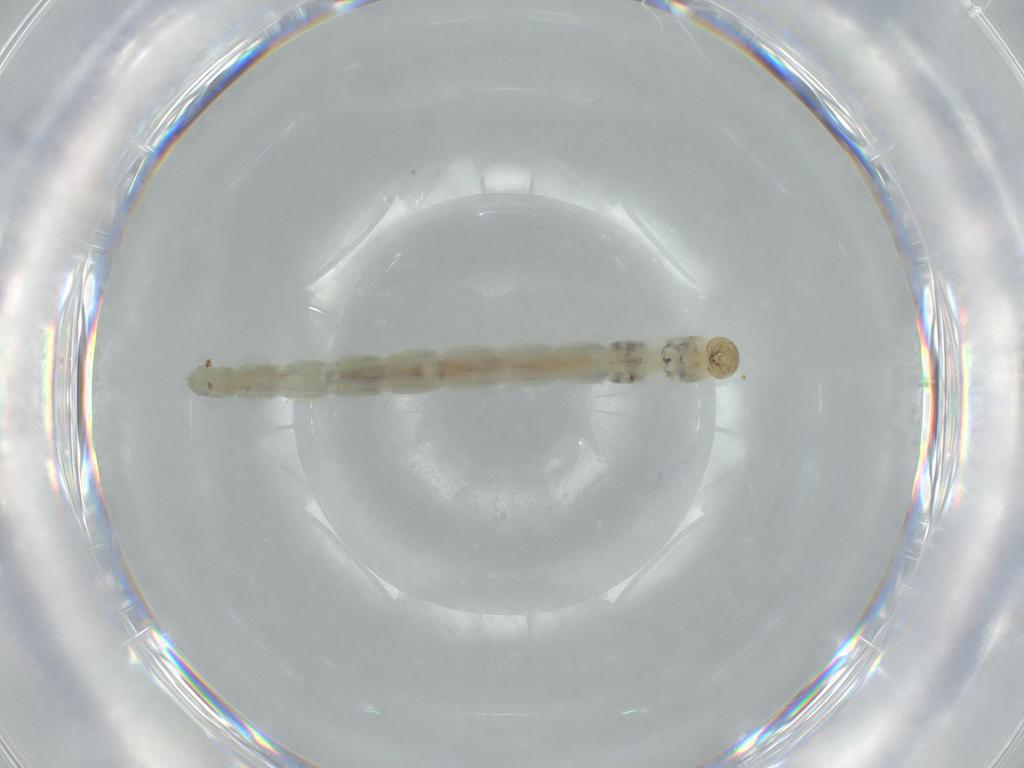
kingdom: Animalia
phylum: Arthropoda
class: Insecta
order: Diptera
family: Chironomidae
